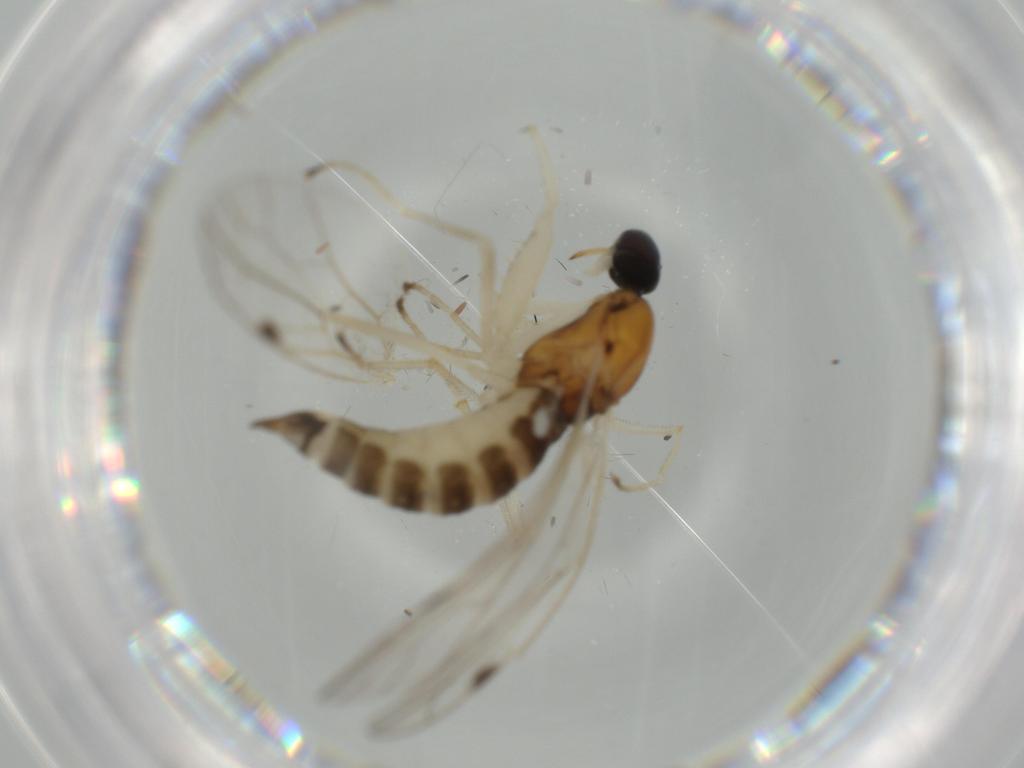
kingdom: Animalia
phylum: Arthropoda
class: Insecta
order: Diptera
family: Empididae
